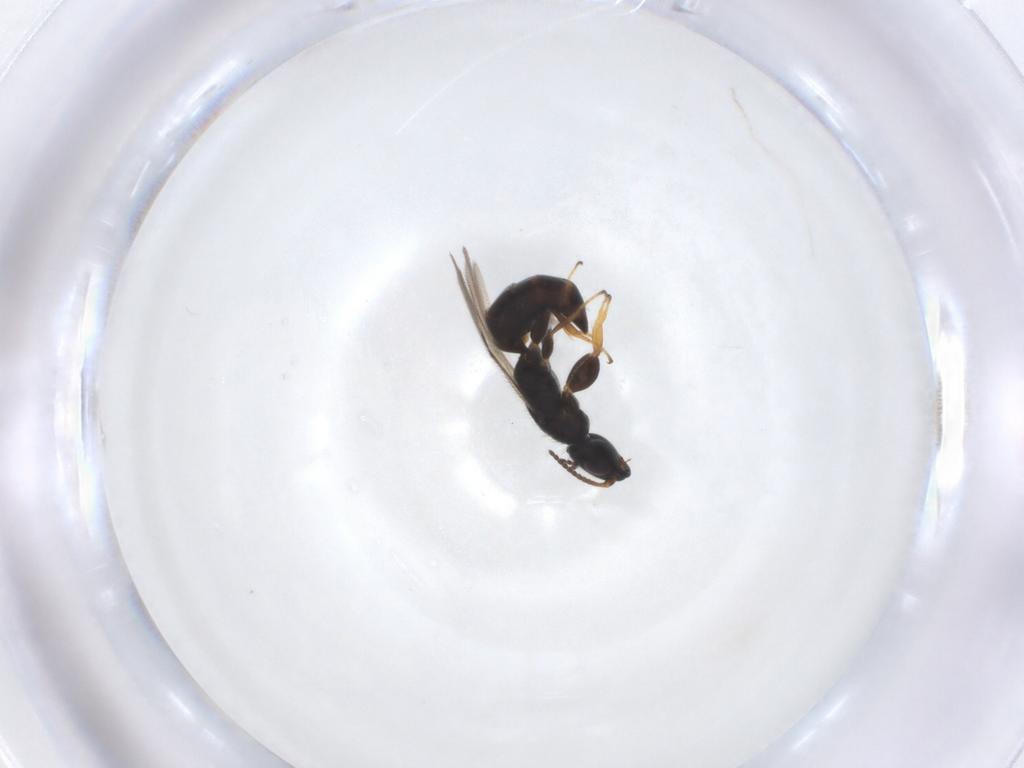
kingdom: Animalia
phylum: Arthropoda
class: Insecta
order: Hymenoptera
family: Bethylidae
